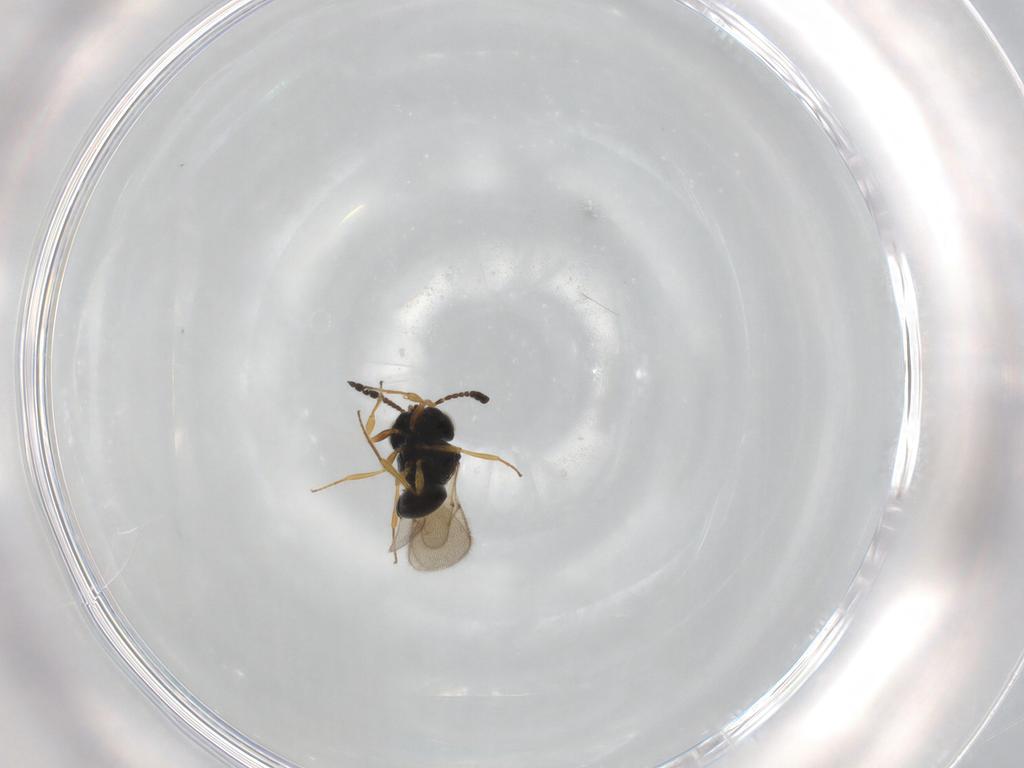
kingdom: Animalia
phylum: Arthropoda
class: Insecta
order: Hymenoptera
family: Scelionidae
